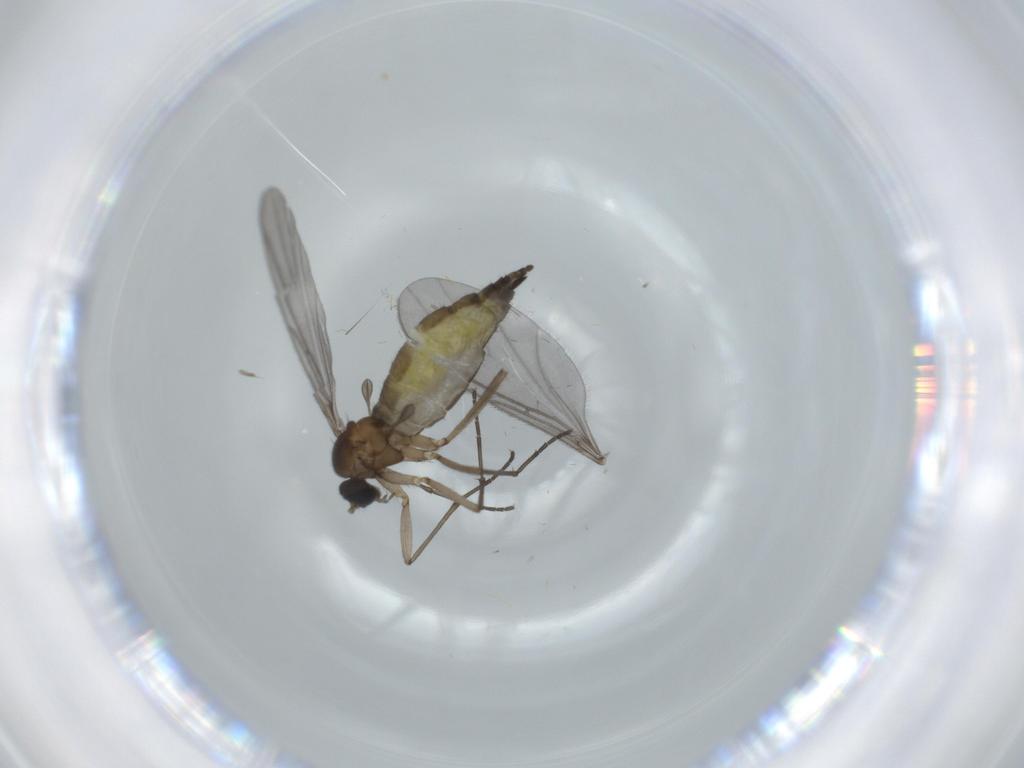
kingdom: Animalia
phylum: Arthropoda
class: Insecta
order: Diptera
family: Sciaridae
